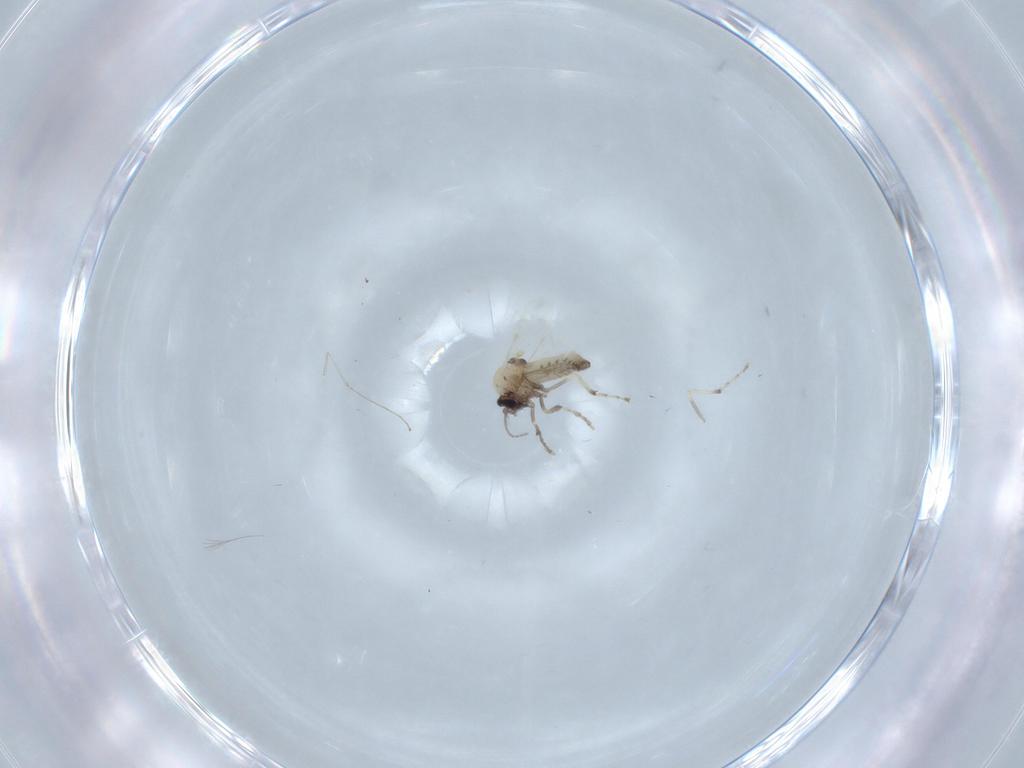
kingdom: Animalia
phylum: Arthropoda
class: Insecta
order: Diptera
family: Ceratopogonidae
